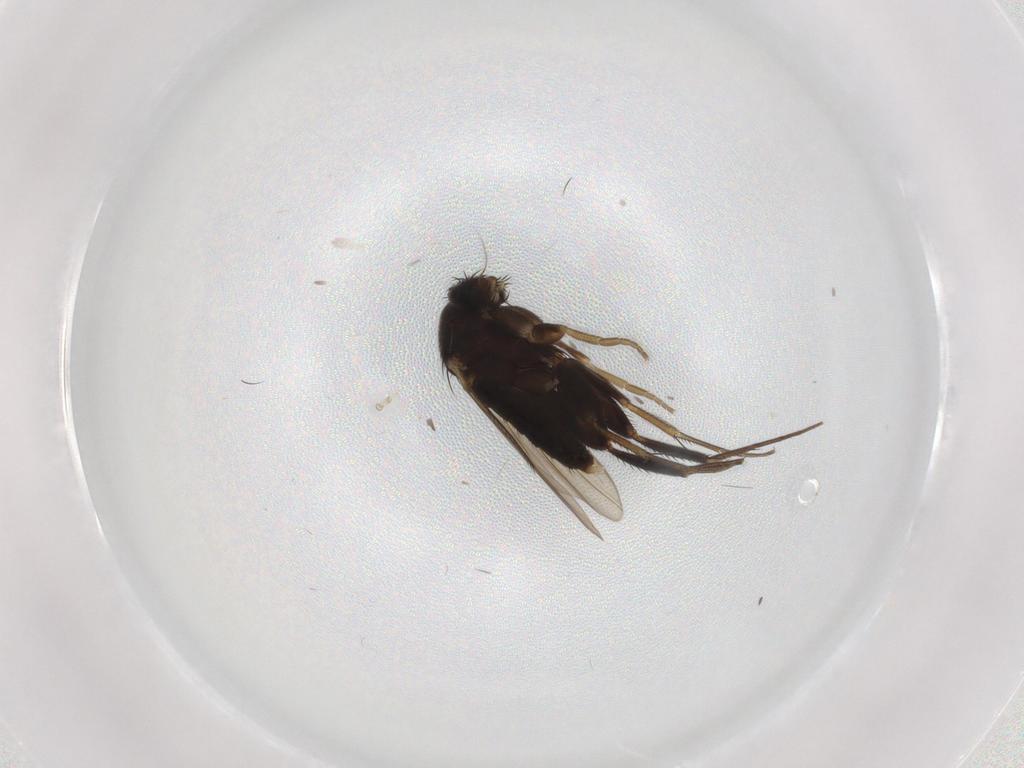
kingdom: Animalia
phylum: Arthropoda
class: Insecta
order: Diptera
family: Phoridae
